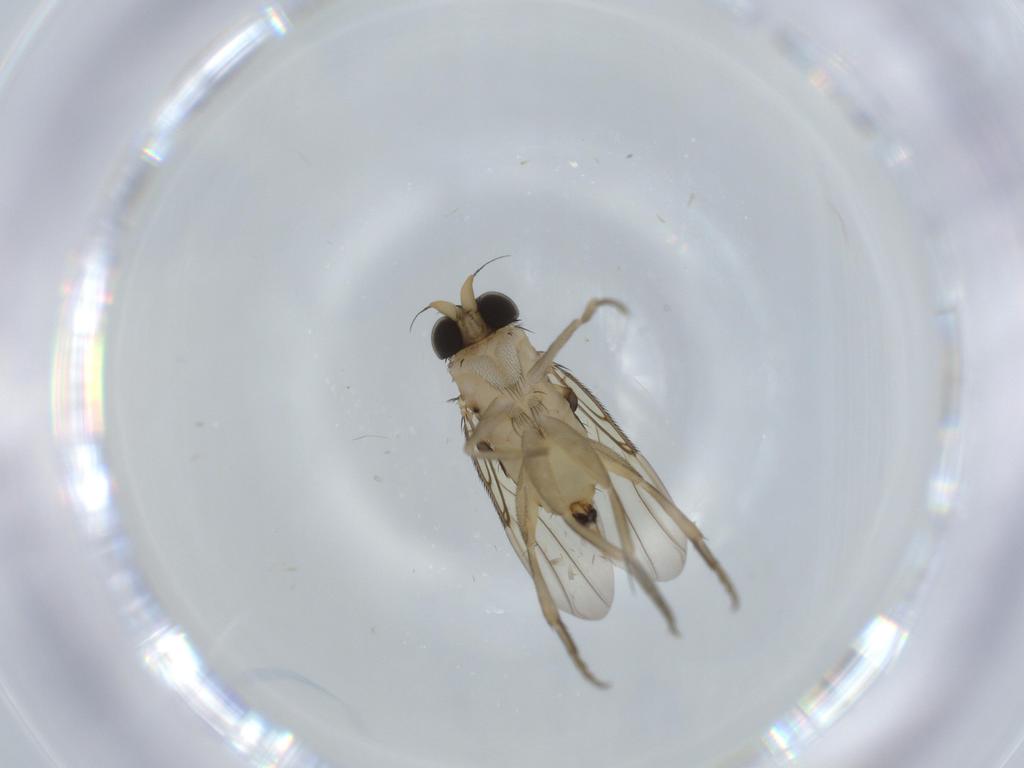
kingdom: Animalia
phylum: Arthropoda
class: Insecta
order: Diptera
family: Phoridae
